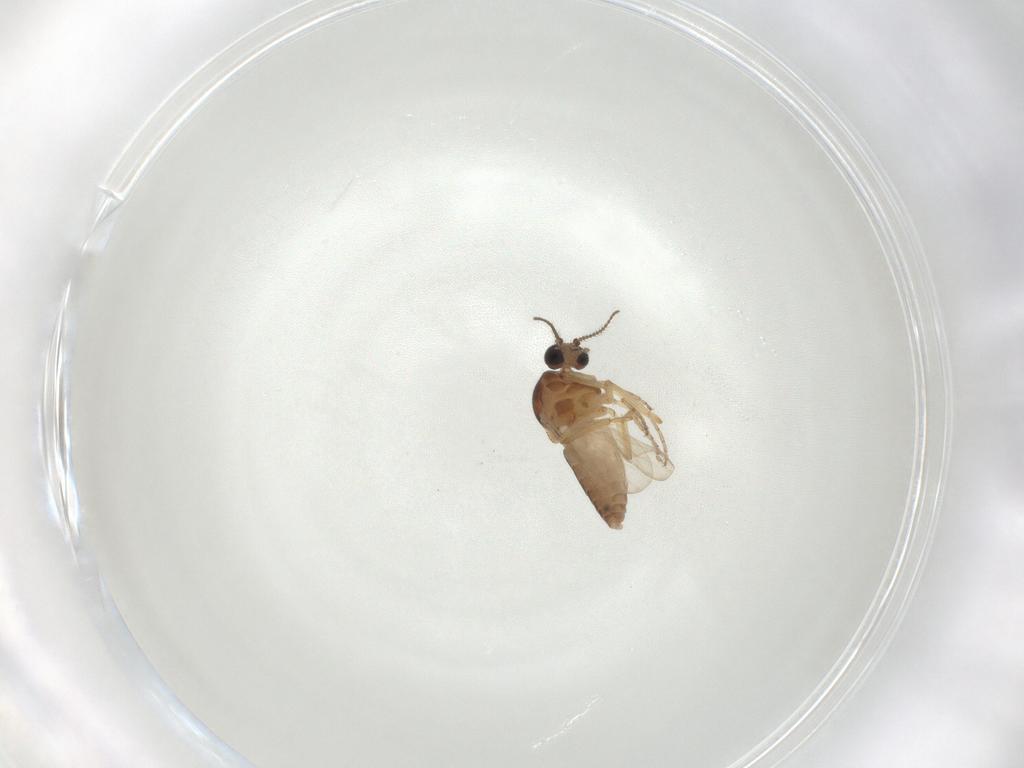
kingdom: Animalia
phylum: Arthropoda
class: Insecta
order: Diptera
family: Ceratopogonidae
